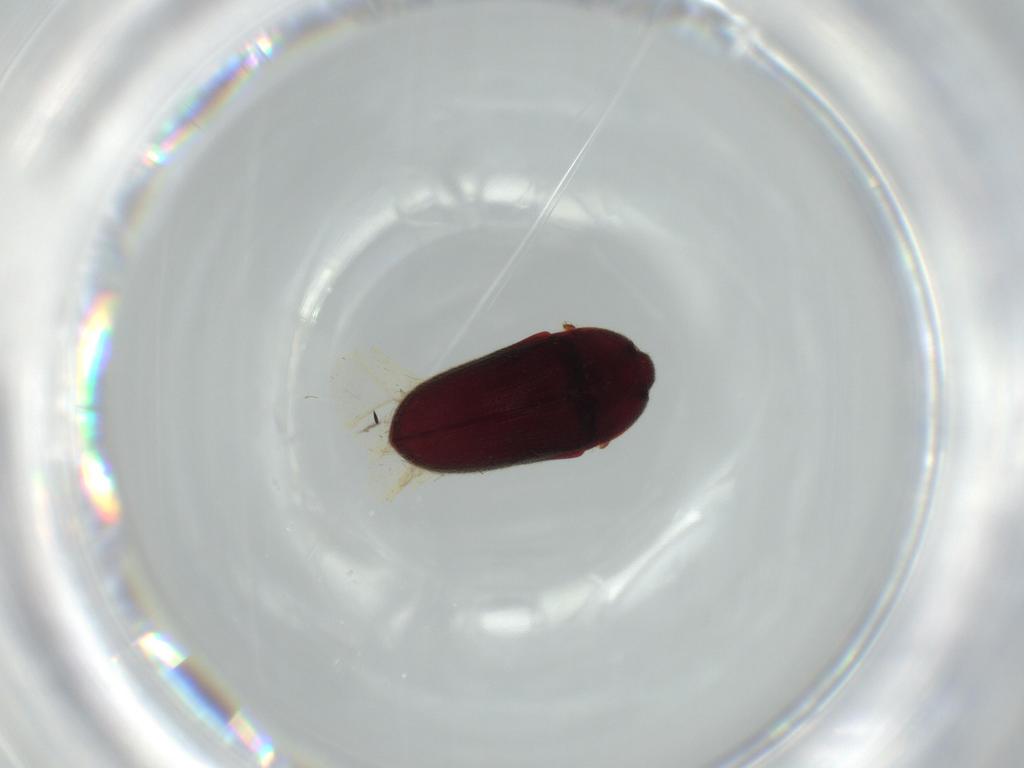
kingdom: Animalia
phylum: Arthropoda
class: Insecta
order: Coleoptera
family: Throscidae
